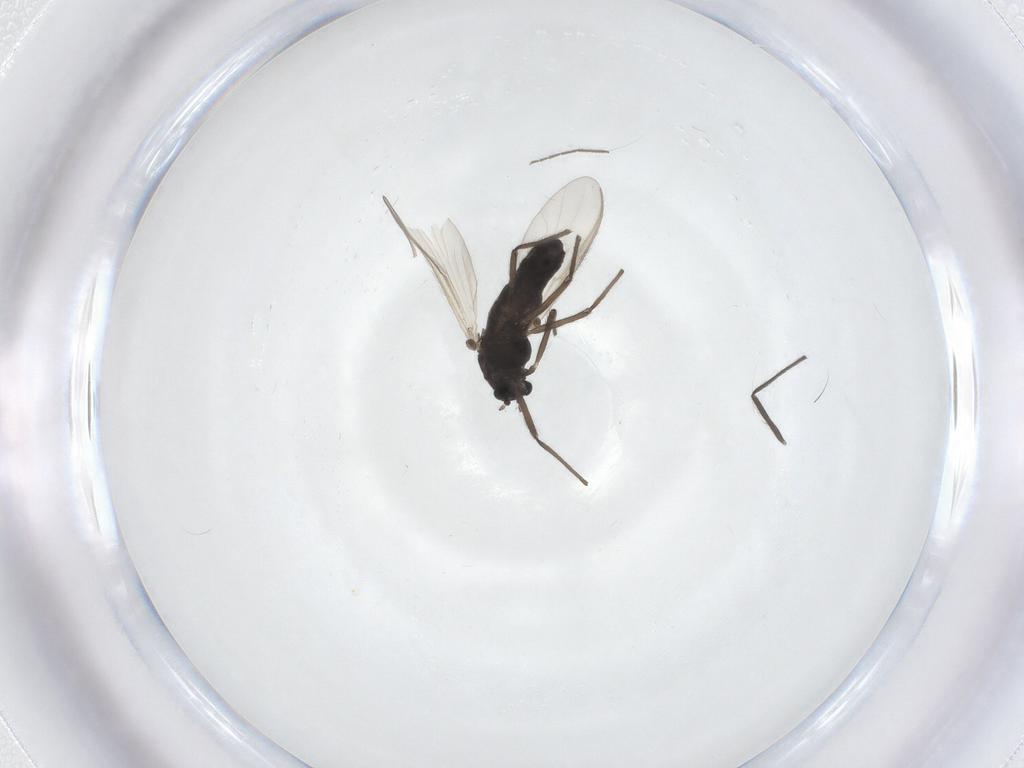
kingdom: Animalia
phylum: Arthropoda
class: Insecta
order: Diptera
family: Chironomidae
